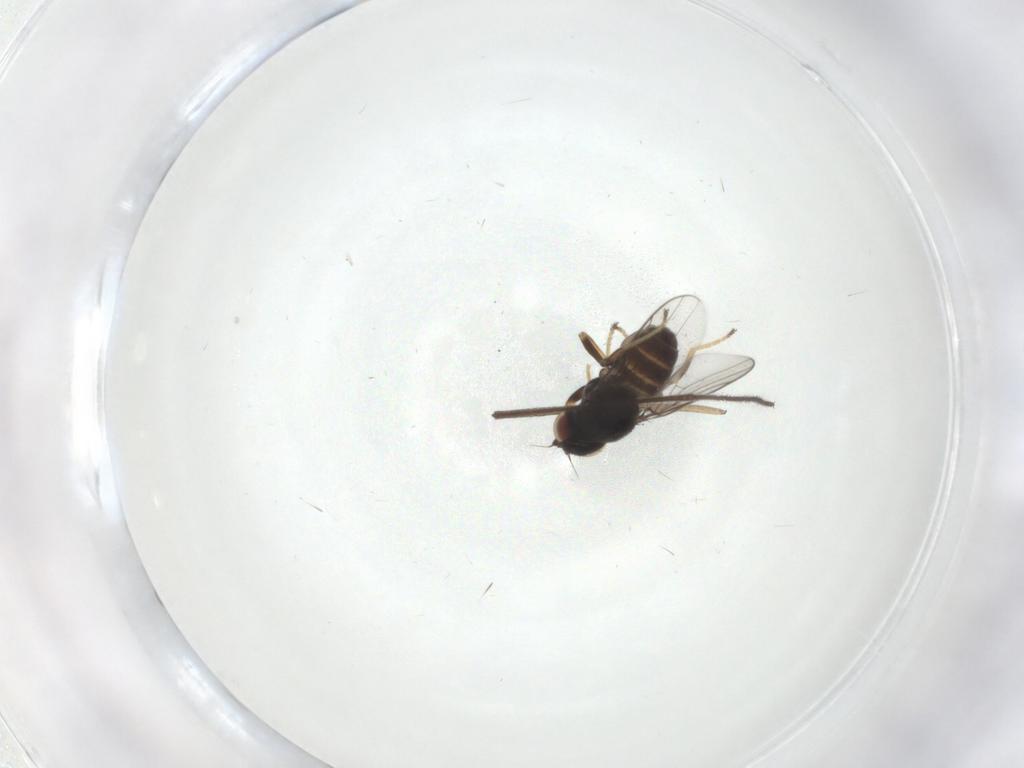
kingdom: Animalia
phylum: Arthropoda
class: Insecta
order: Diptera
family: Chloropidae
